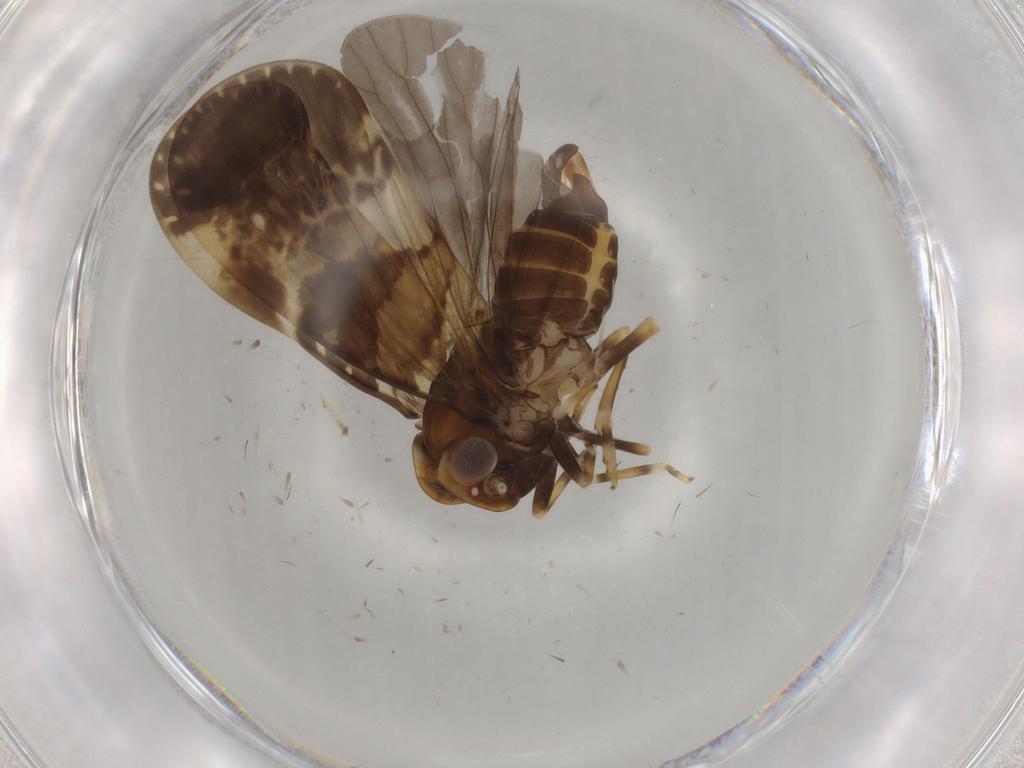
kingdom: Animalia
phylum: Arthropoda
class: Insecta
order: Hemiptera
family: Cixiidae
